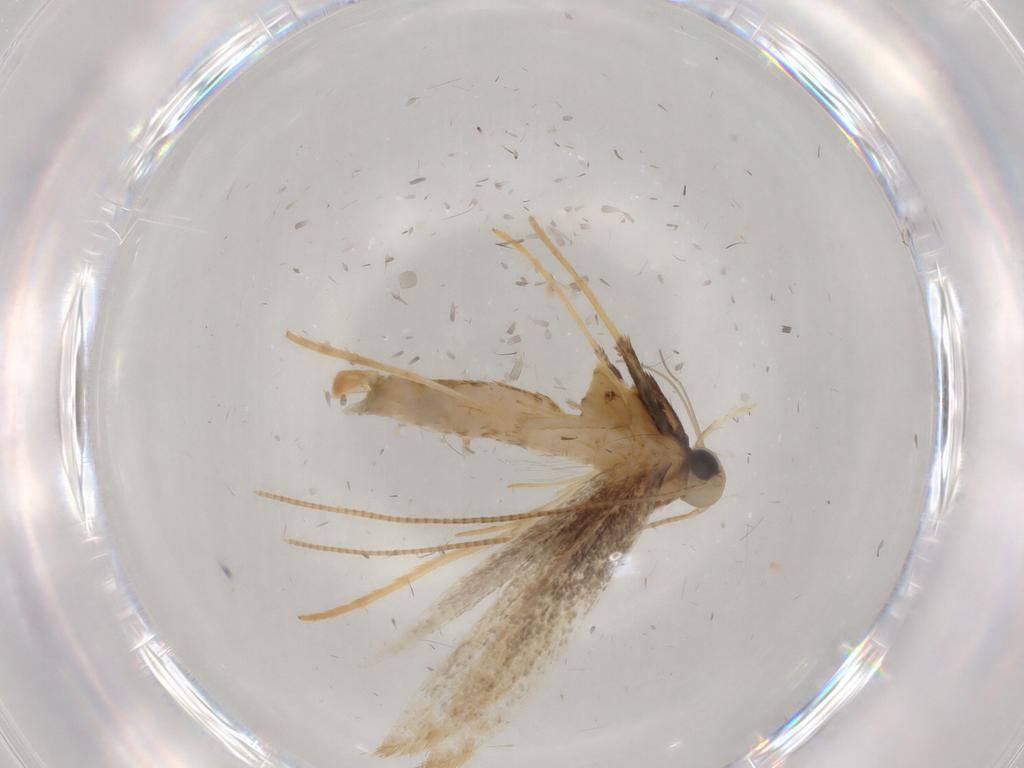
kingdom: Animalia
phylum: Arthropoda
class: Insecta
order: Lepidoptera
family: Gracillariidae
